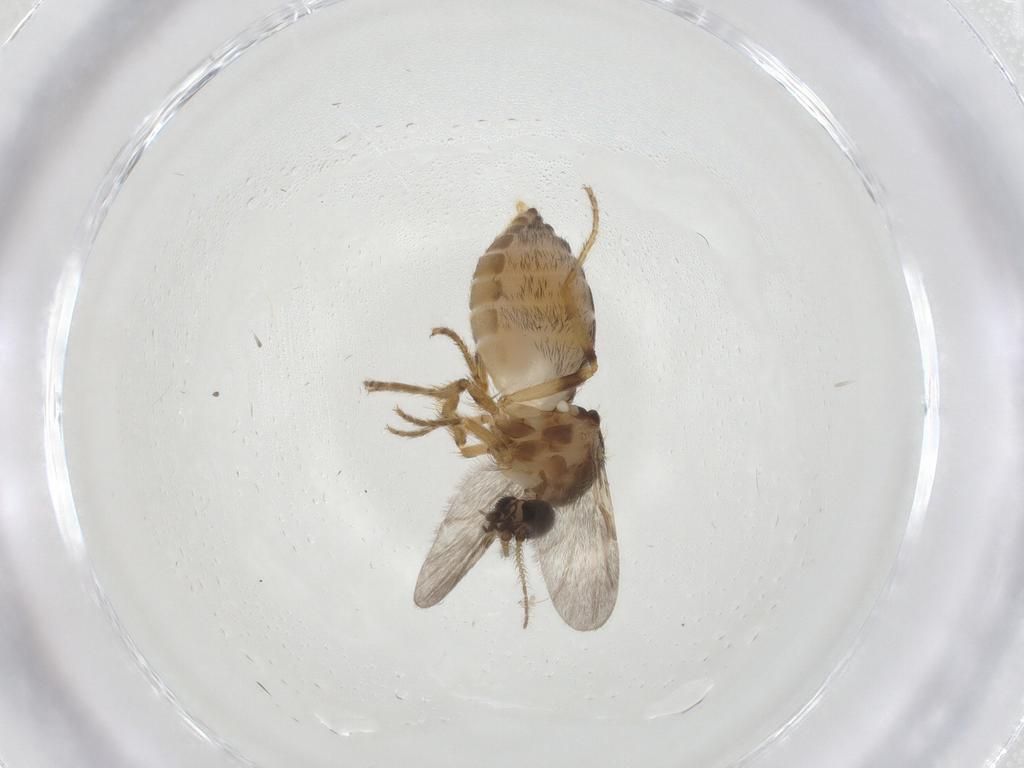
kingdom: Animalia
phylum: Arthropoda
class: Insecta
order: Diptera
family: Ceratopogonidae
